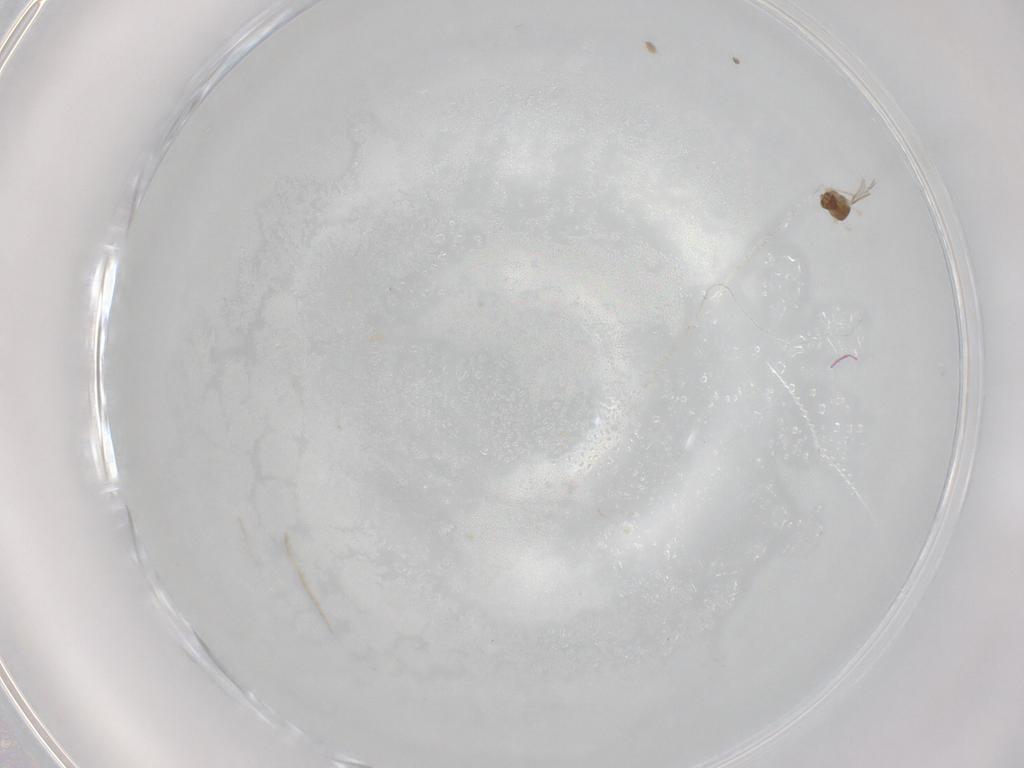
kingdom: Animalia
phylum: Arthropoda
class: Insecta
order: Diptera
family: Cecidomyiidae
